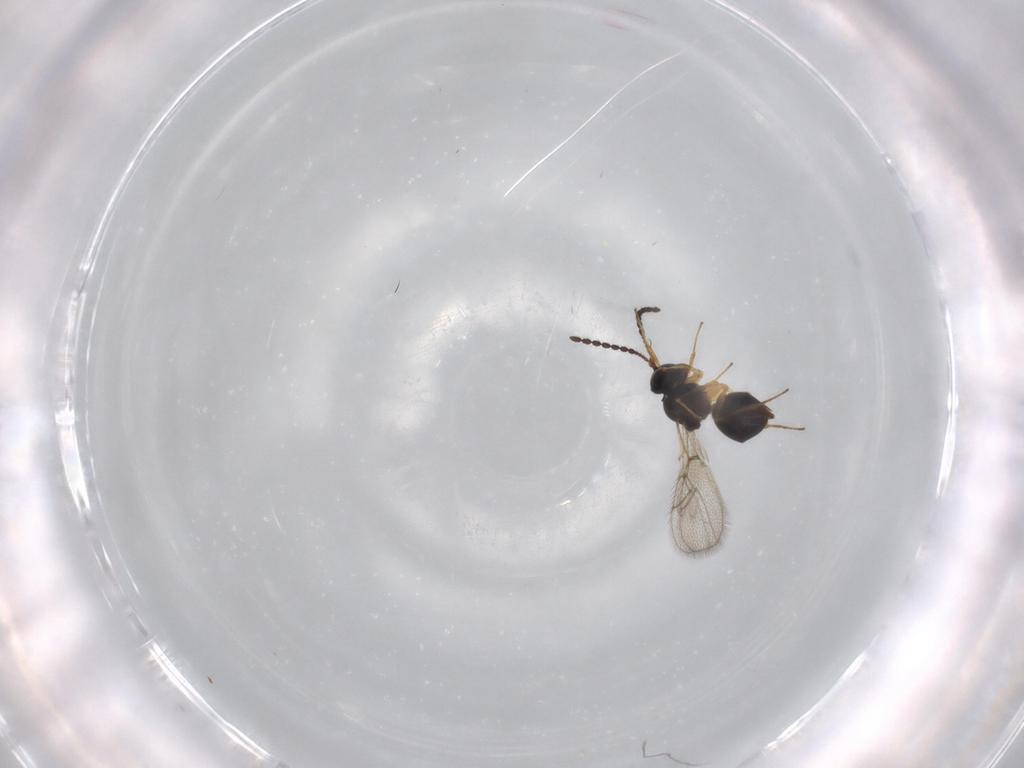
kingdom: Animalia
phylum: Arthropoda
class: Insecta
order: Hymenoptera
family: Figitidae
